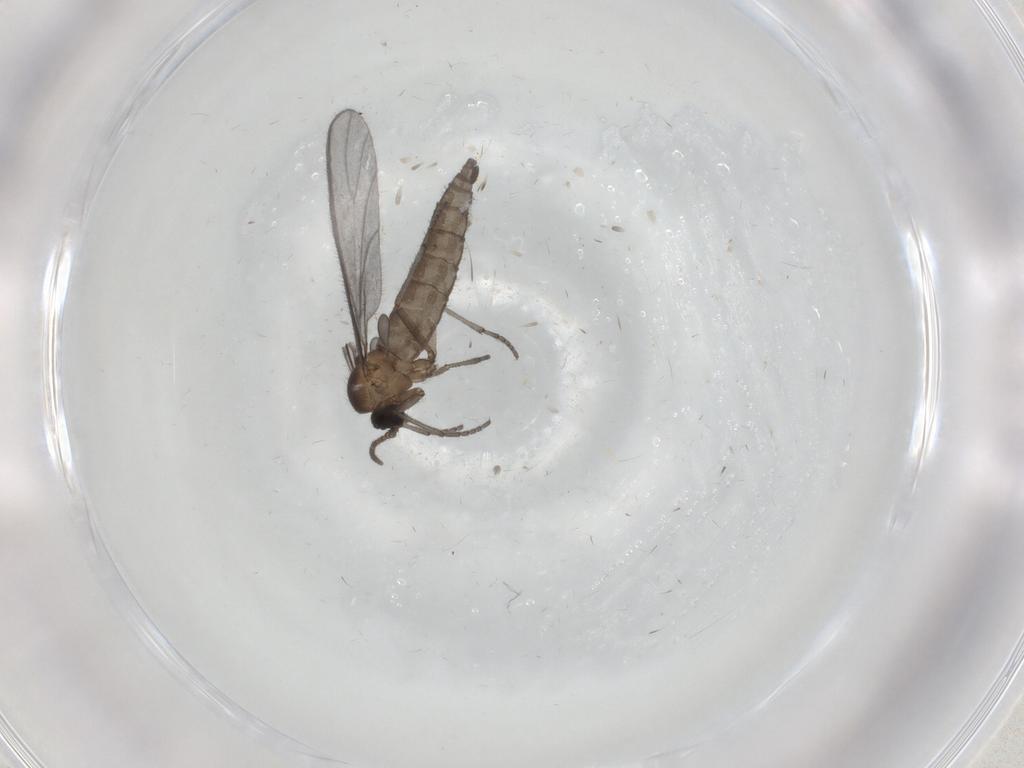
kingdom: Animalia
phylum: Arthropoda
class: Insecta
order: Diptera
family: Sciaridae
